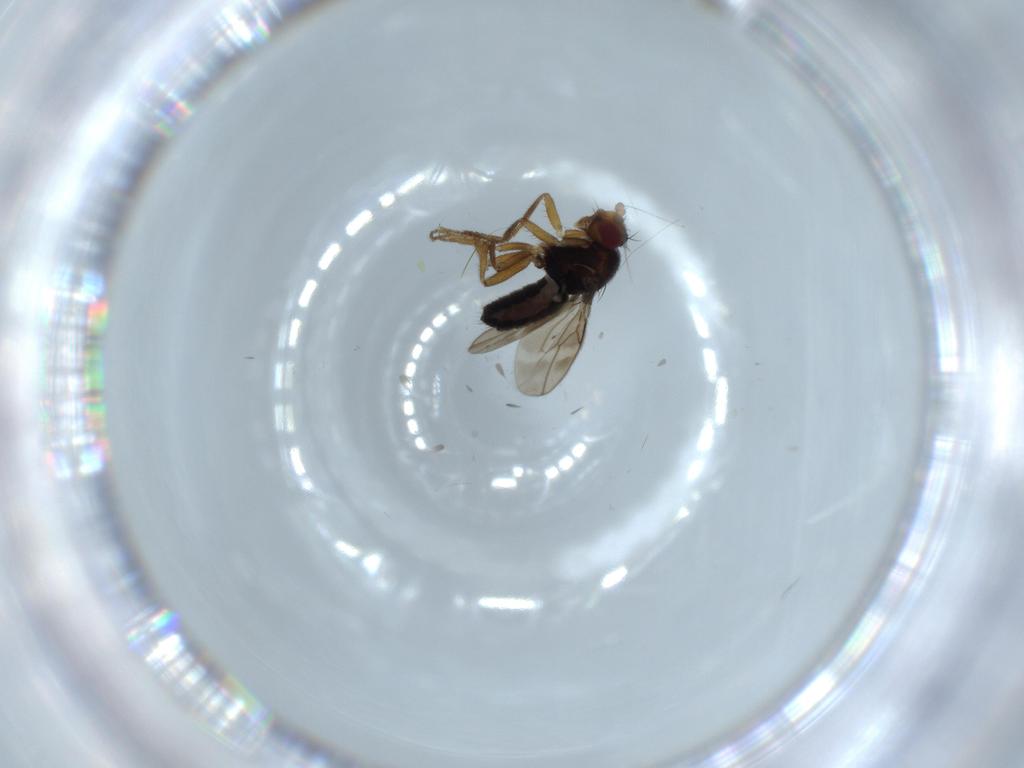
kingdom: Animalia
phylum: Arthropoda
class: Insecta
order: Diptera
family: Sphaeroceridae
